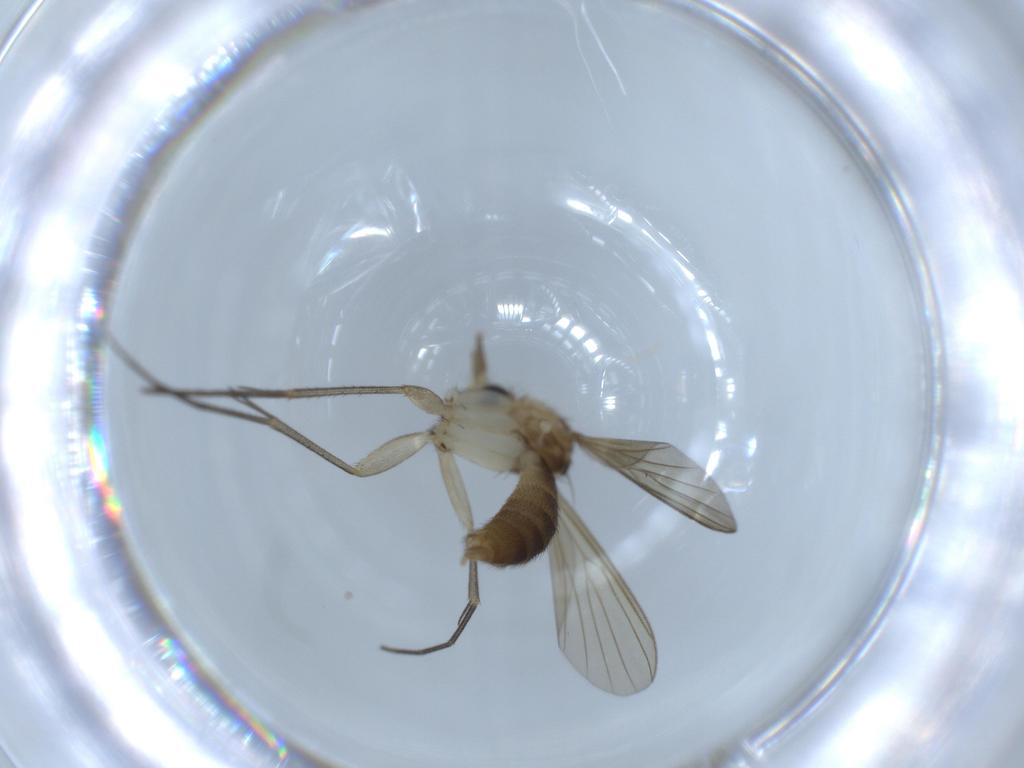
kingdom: Animalia
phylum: Arthropoda
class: Insecta
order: Diptera
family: Mycetophilidae
